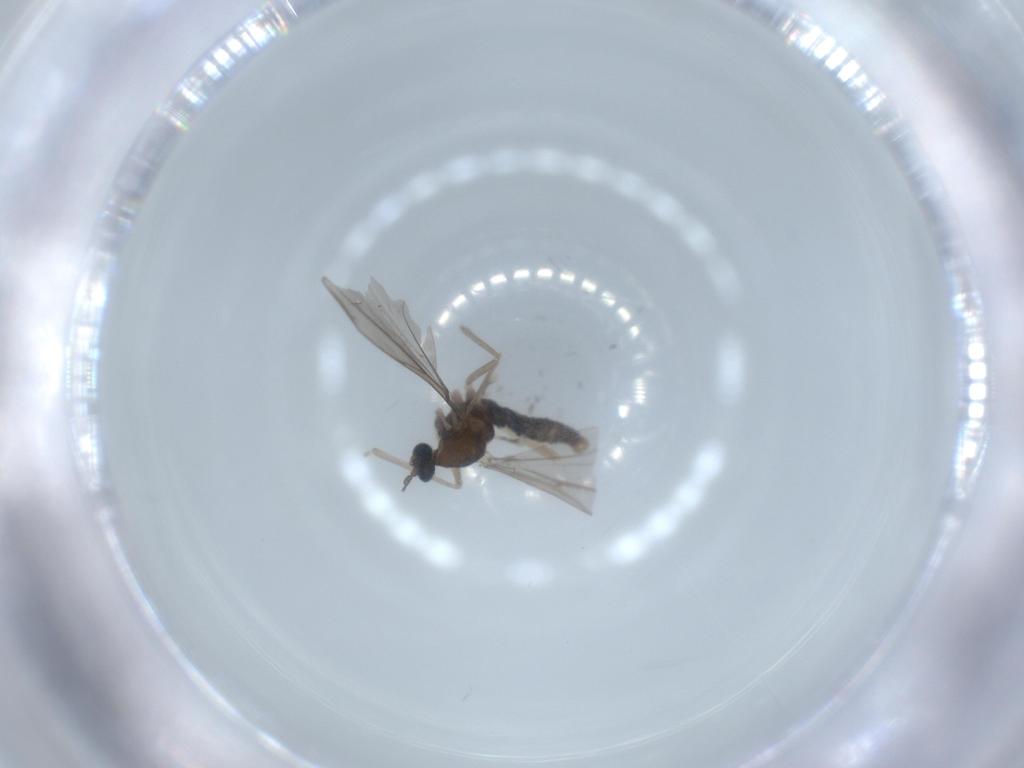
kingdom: Animalia
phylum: Arthropoda
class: Insecta
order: Diptera
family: Cecidomyiidae
